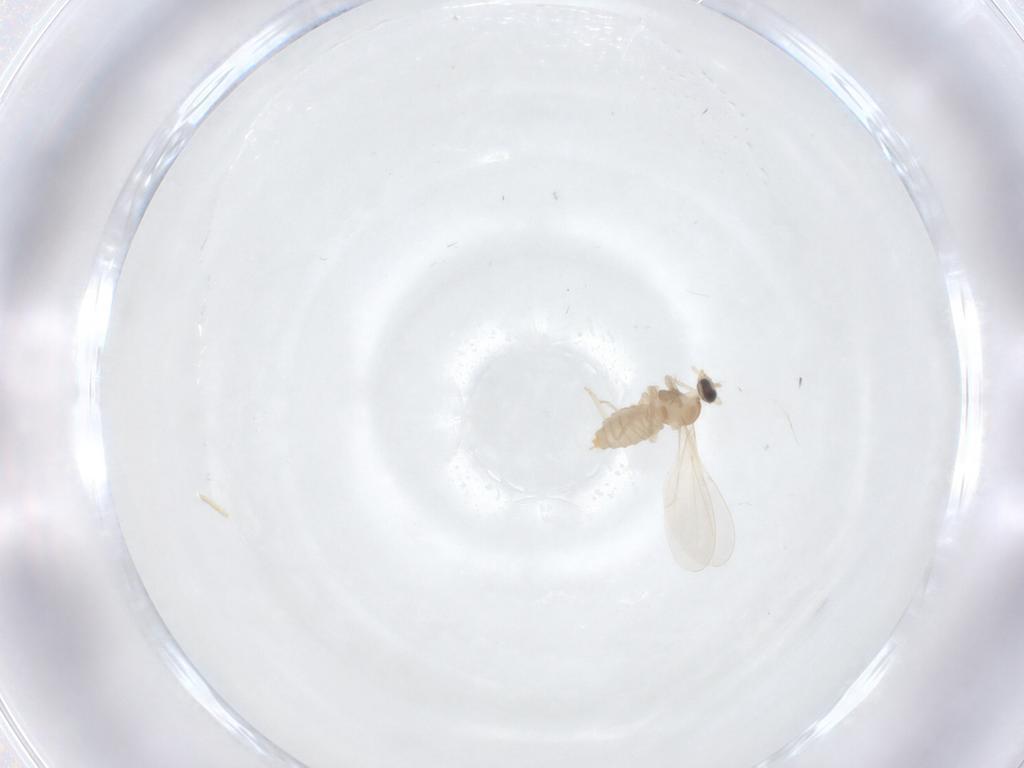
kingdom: Animalia
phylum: Arthropoda
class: Insecta
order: Diptera
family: Cecidomyiidae
